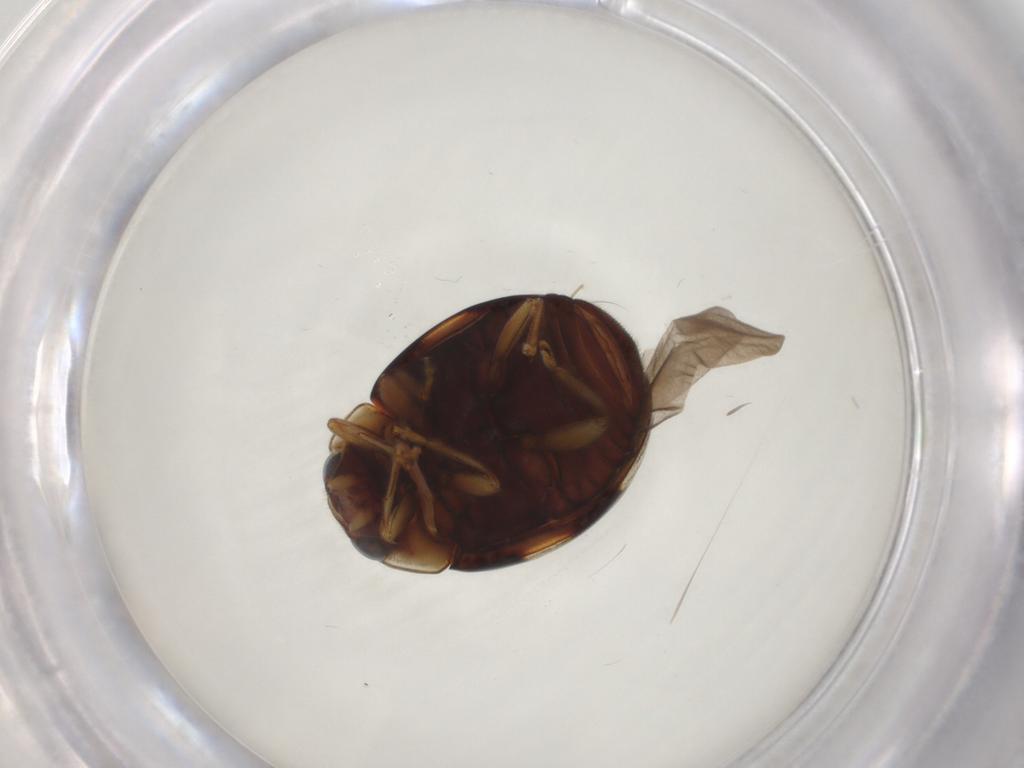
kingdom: Animalia
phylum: Arthropoda
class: Insecta
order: Coleoptera
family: Coccinellidae
